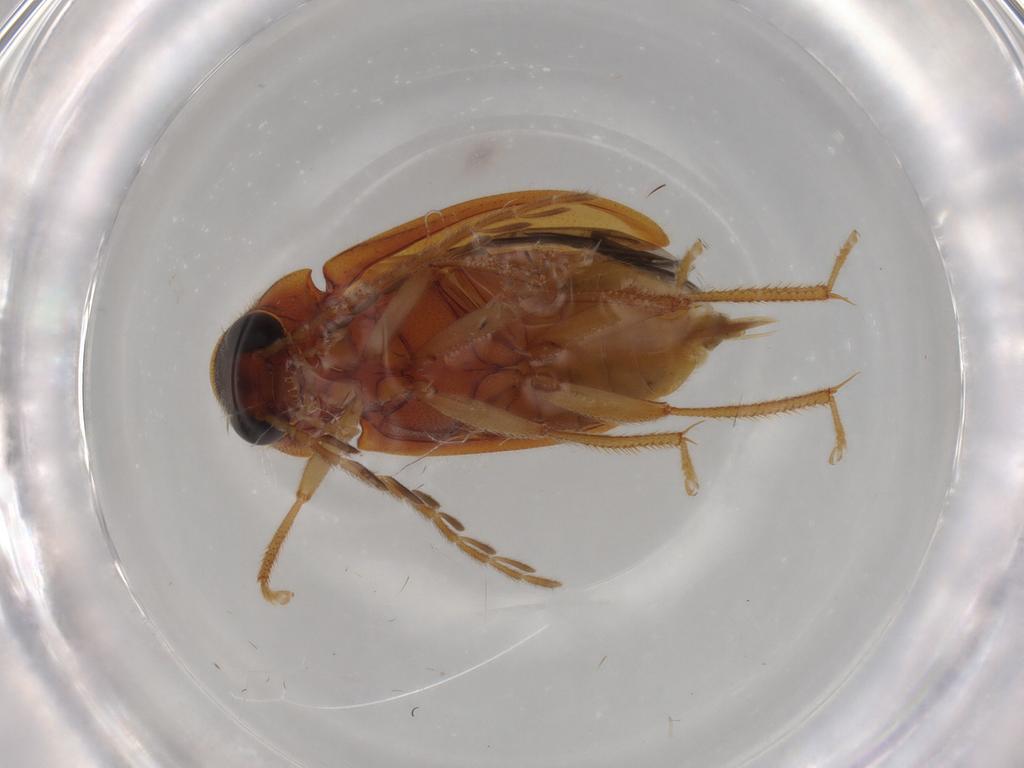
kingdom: Animalia
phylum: Arthropoda
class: Insecta
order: Coleoptera
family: Ptilodactylidae
